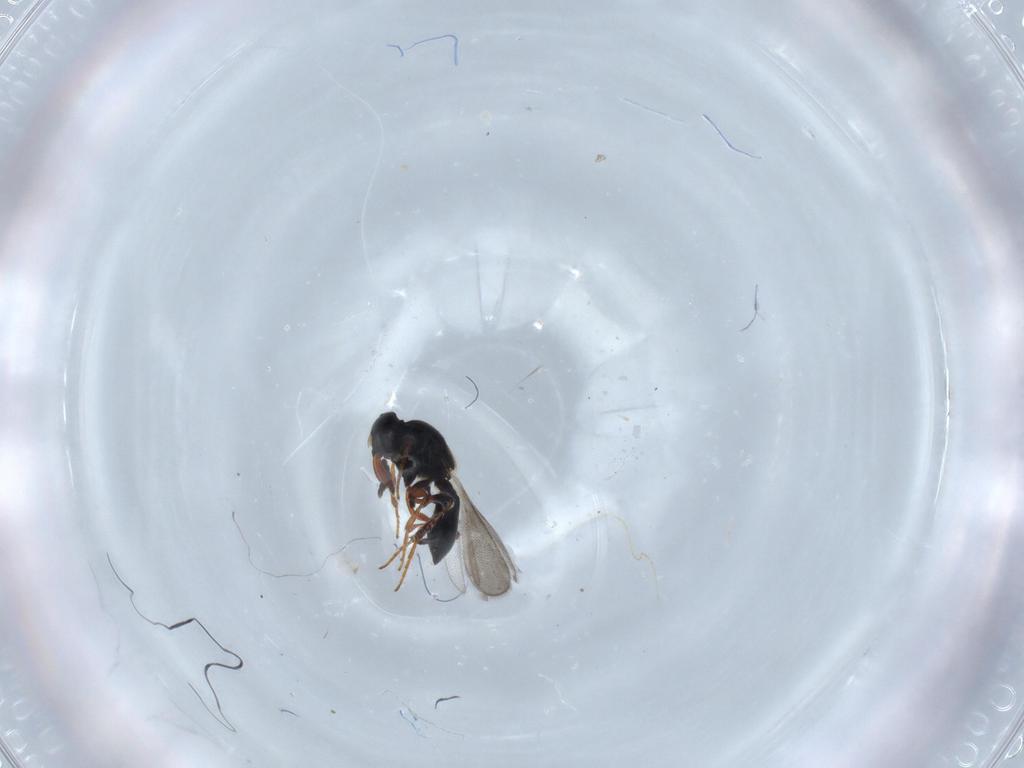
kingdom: Animalia
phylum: Arthropoda
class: Insecta
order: Hymenoptera
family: Platygastridae
